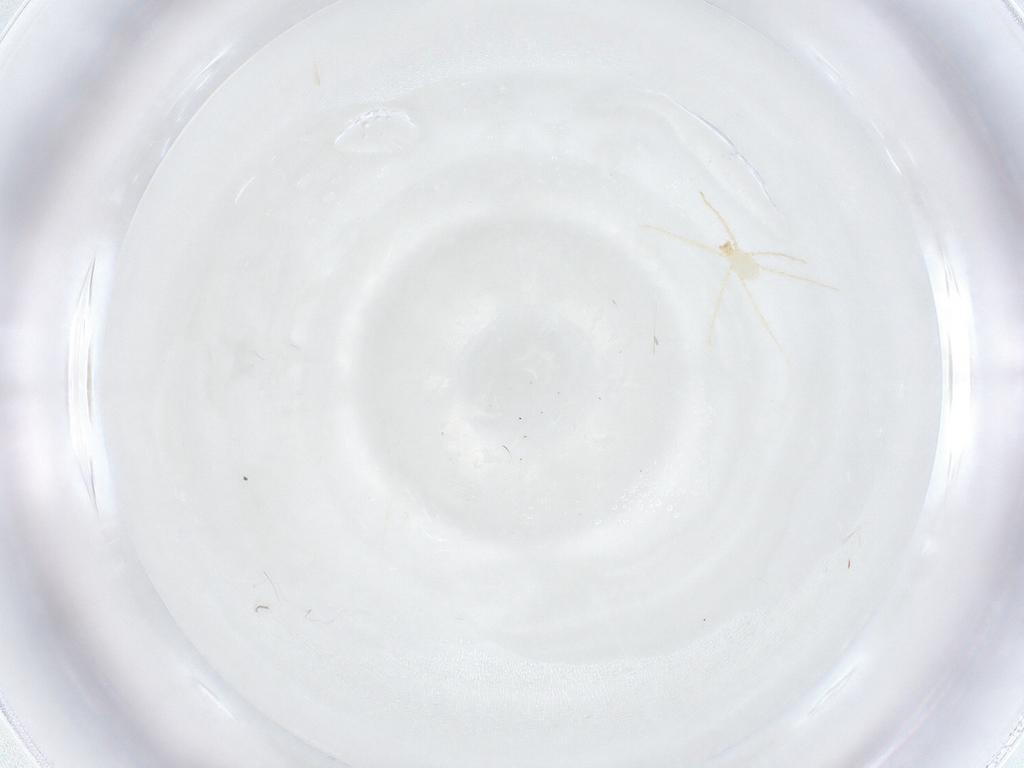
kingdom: Animalia
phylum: Arthropoda
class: Arachnida
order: Trombidiformes
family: Erythraeidae
